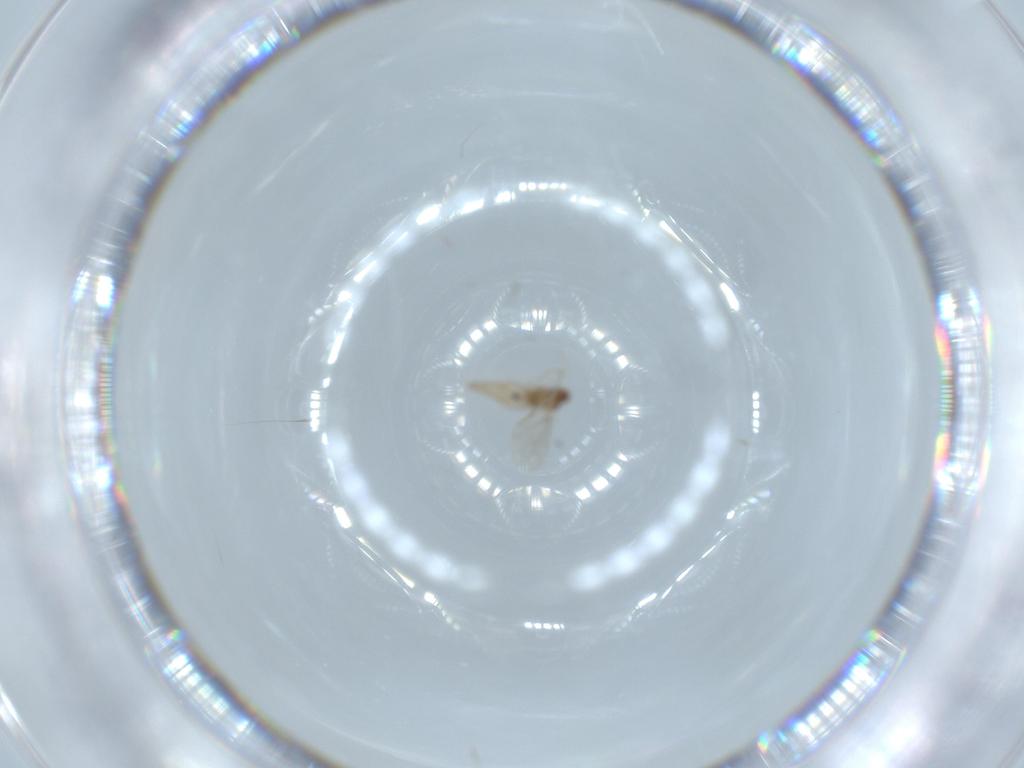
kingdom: Animalia
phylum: Arthropoda
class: Insecta
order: Diptera
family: Cecidomyiidae
